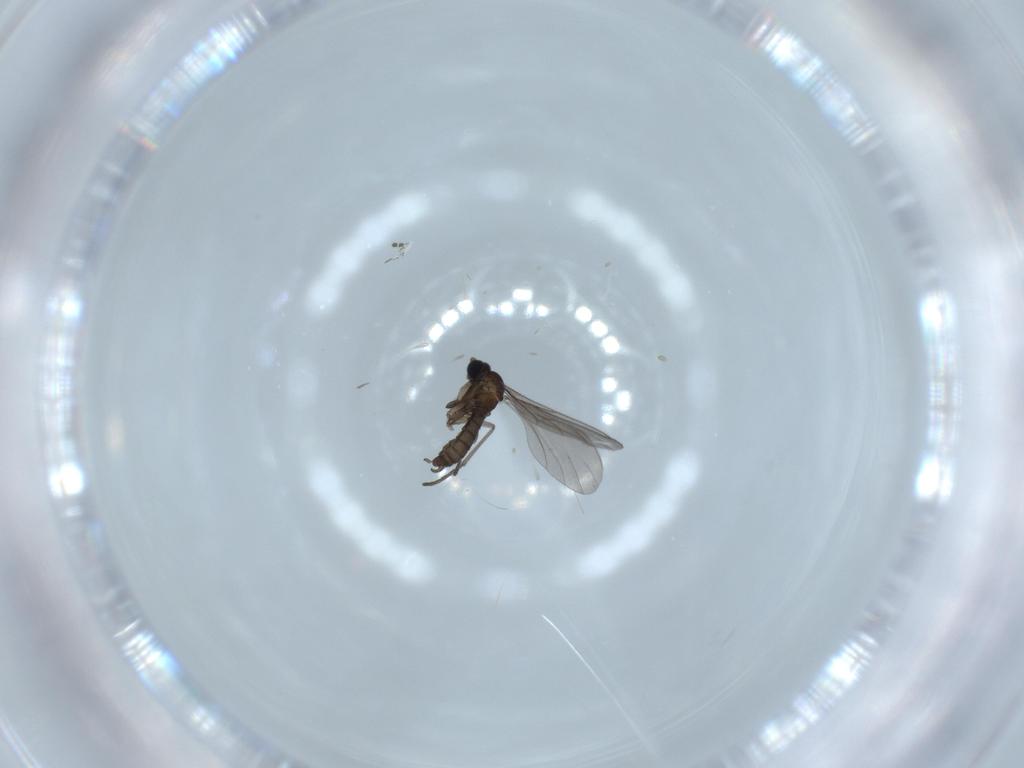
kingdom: Animalia
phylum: Arthropoda
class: Insecta
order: Diptera
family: Sciaridae
